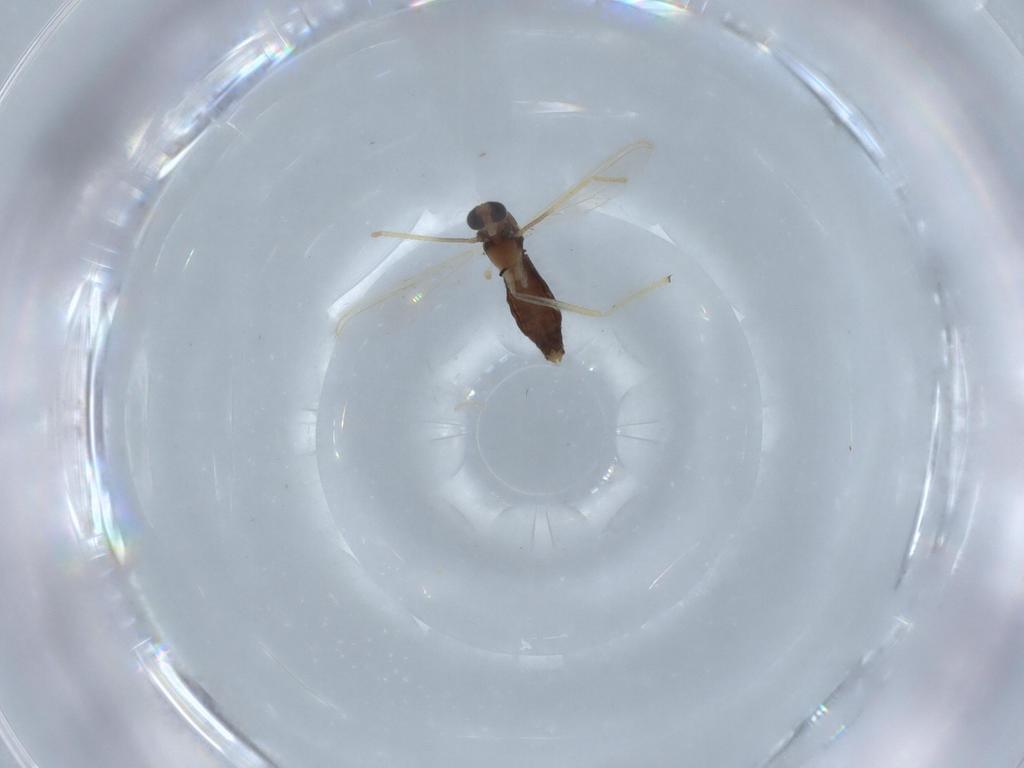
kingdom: Animalia
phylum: Arthropoda
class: Insecta
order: Diptera
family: Chironomidae
